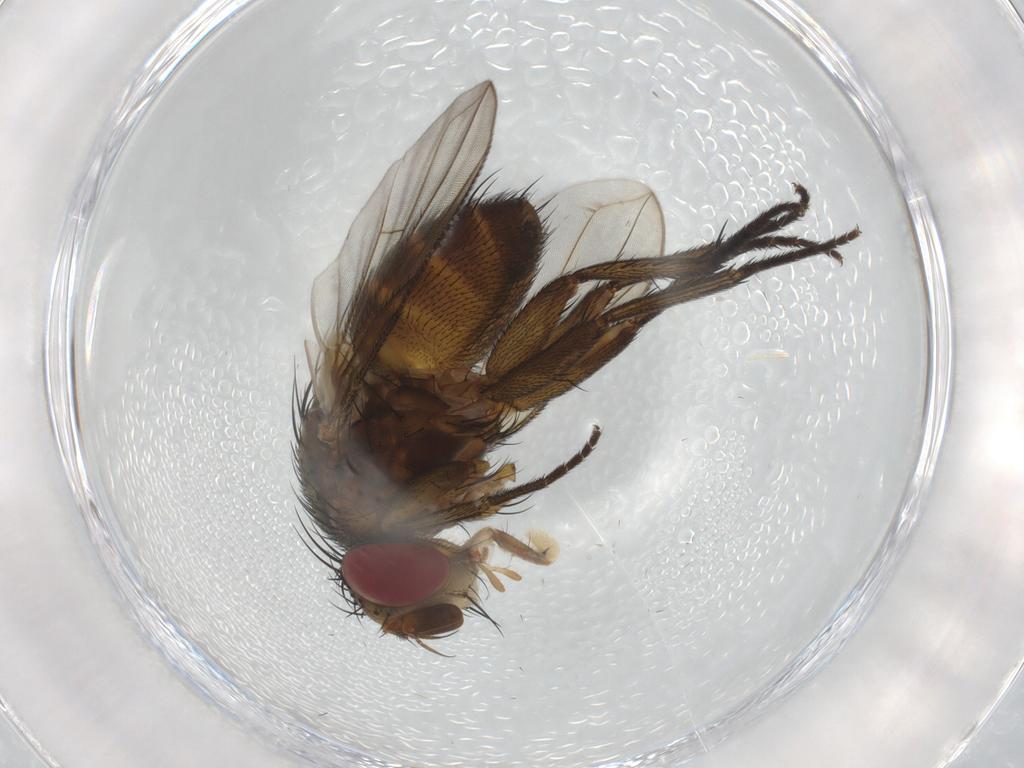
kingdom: Animalia
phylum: Arthropoda
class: Insecta
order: Diptera
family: Tachinidae
